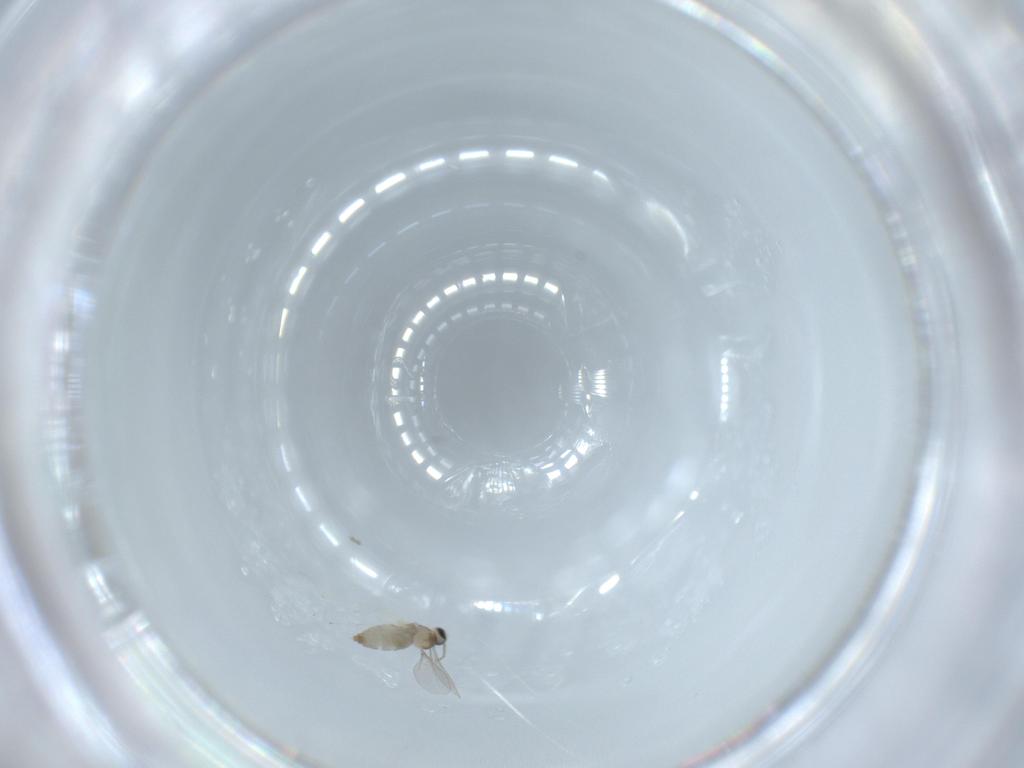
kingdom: Animalia
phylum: Arthropoda
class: Insecta
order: Diptera
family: Cecidomyiidae
